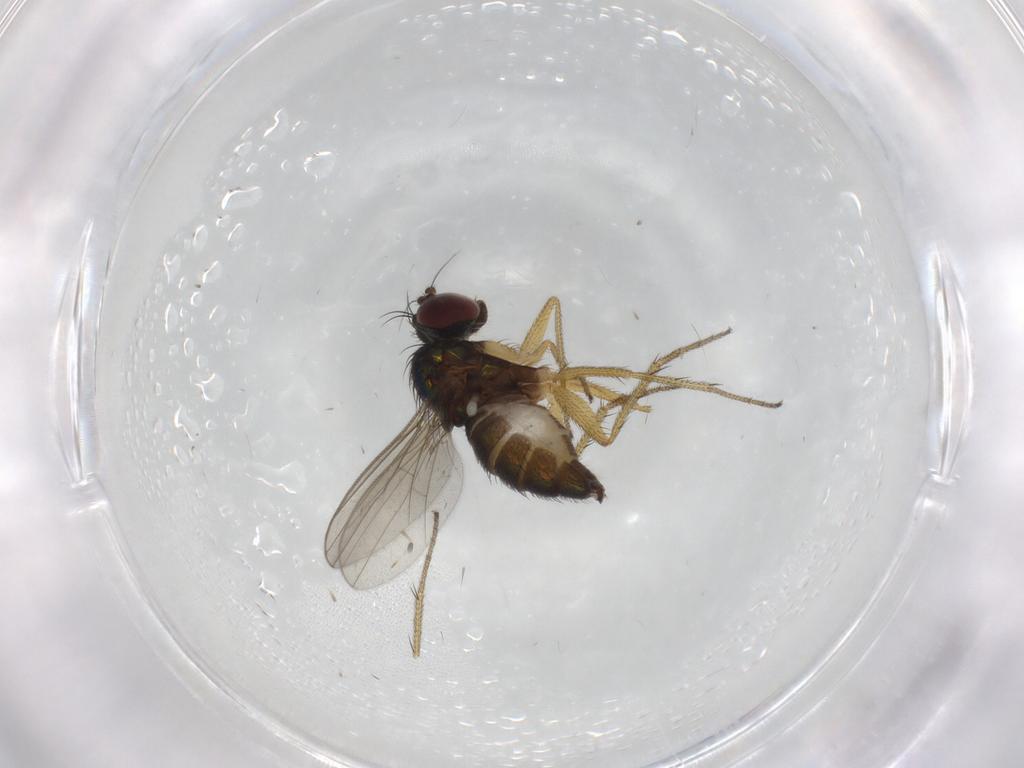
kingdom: Animalia
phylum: Arthropoda
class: Insecta
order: Diptera
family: Dolichopodidae
